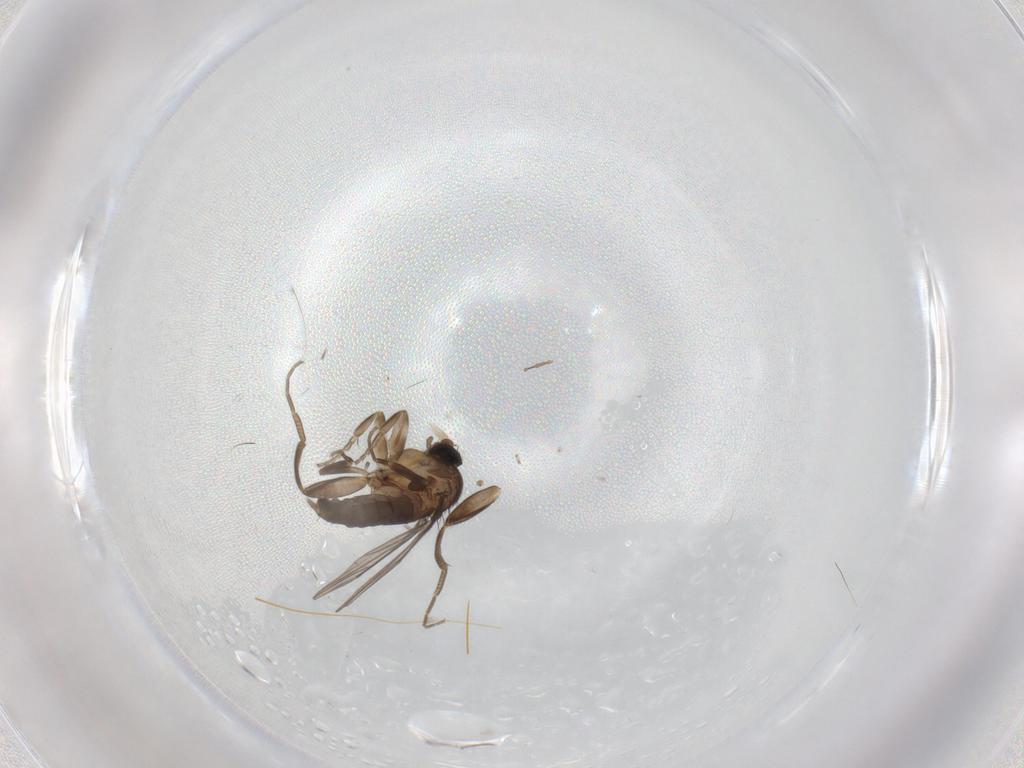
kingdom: Animalia
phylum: Arthropoda
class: Insecta
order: Diptera
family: Phoridae
